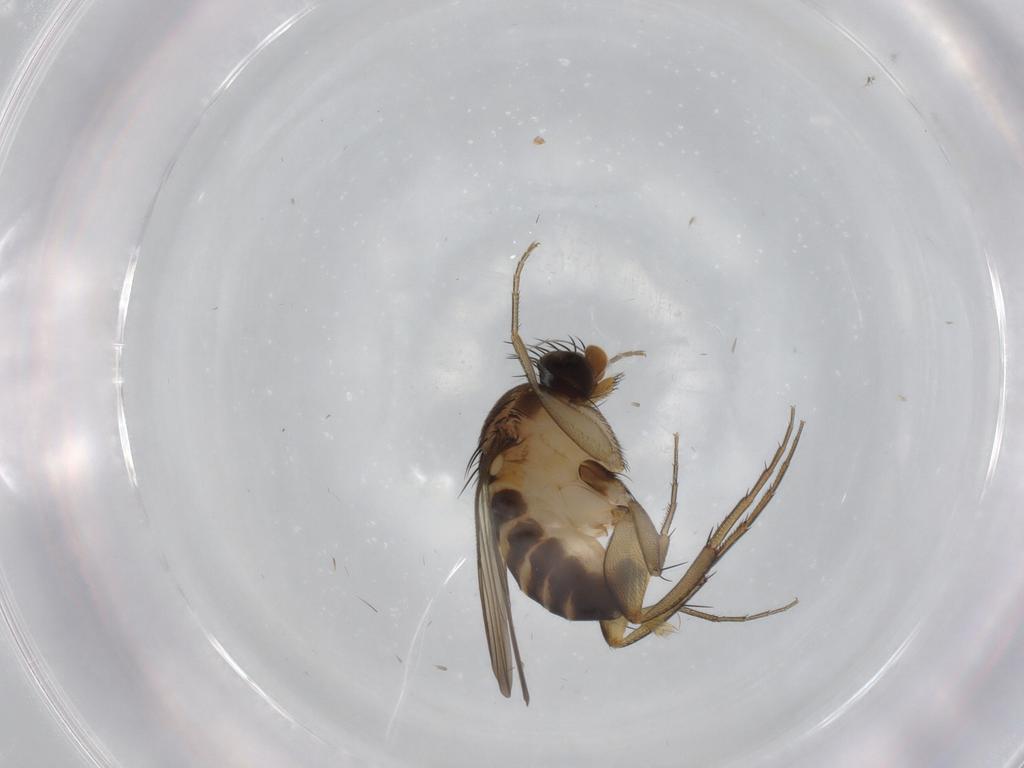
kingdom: Animalia
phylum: Arthropoda
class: Insecta
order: Diptera
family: Phoridae
